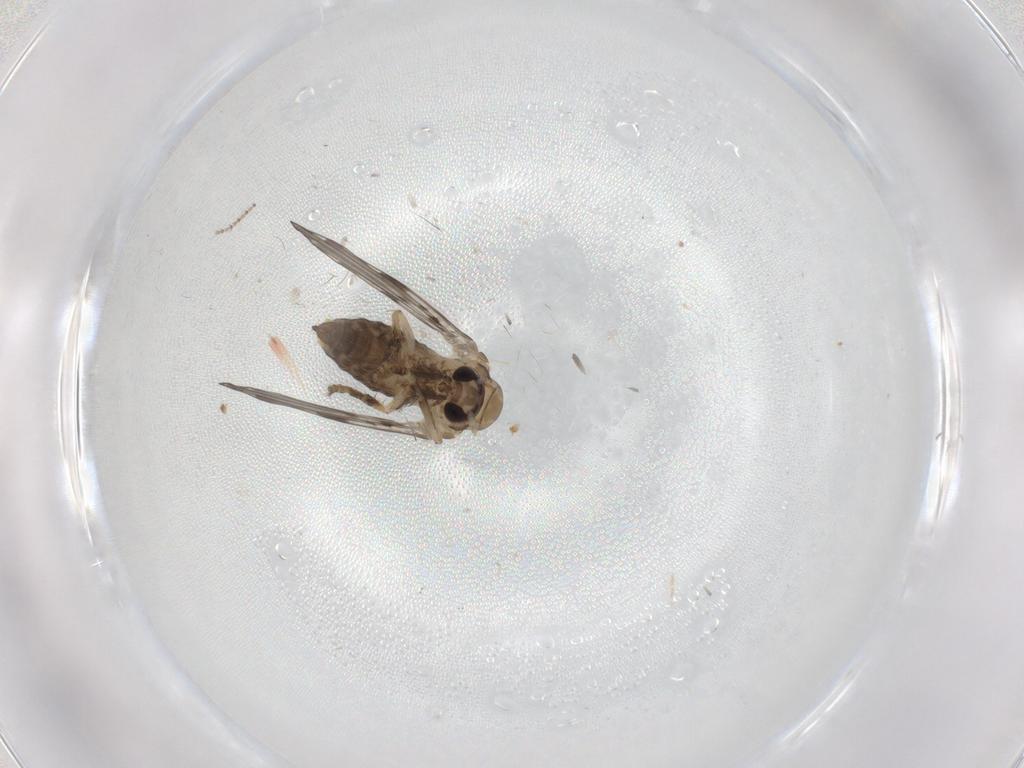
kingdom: Animalia
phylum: Arthropoda
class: Insecta
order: Diptera
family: Psychodidae
